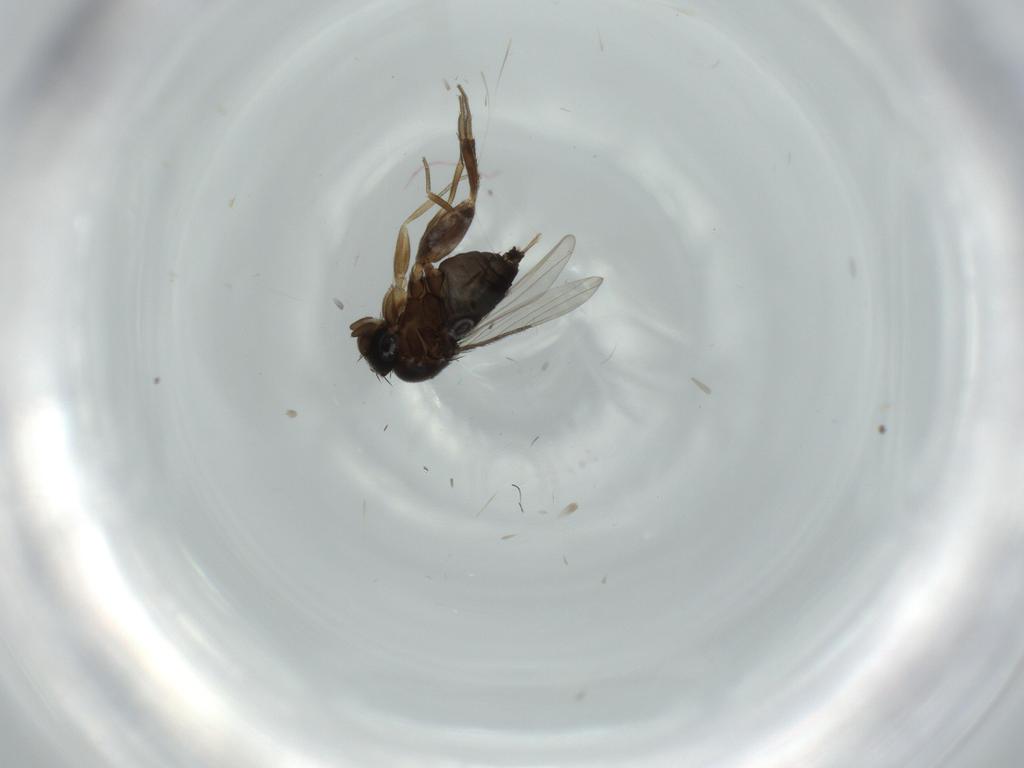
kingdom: Animalia
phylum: Arthropoda
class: Insecta
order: Diptera
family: Phoridae
